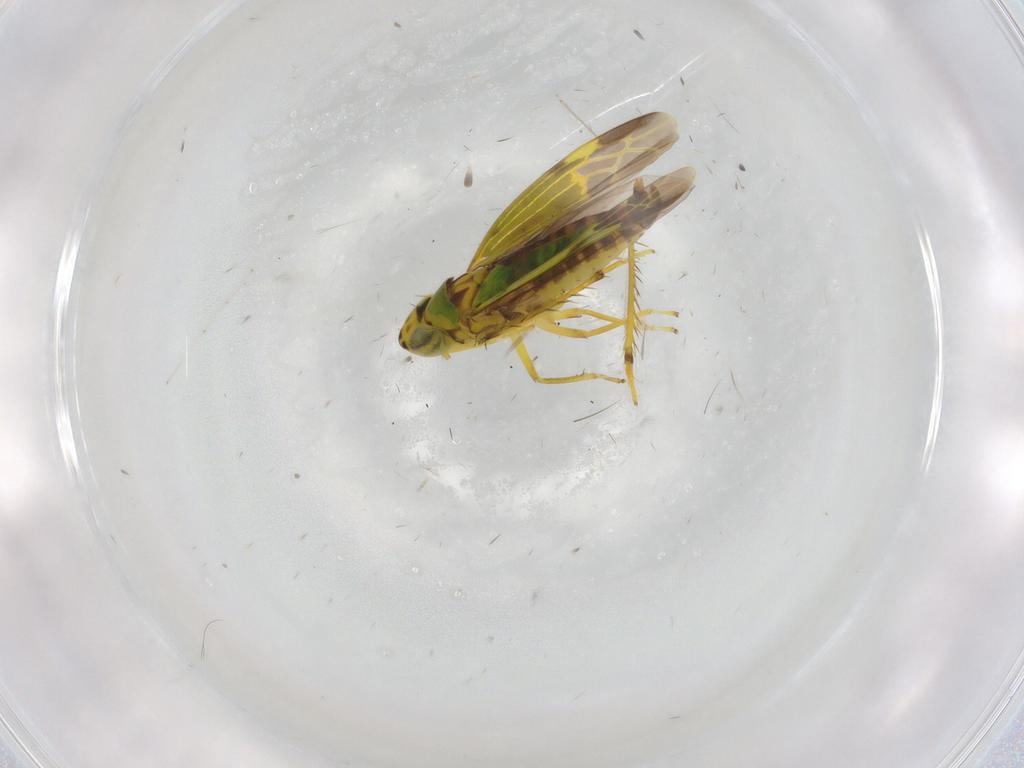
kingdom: Animalia
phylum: Arthropoda
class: Insecta
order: Hemiptera
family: Cicadellidae
